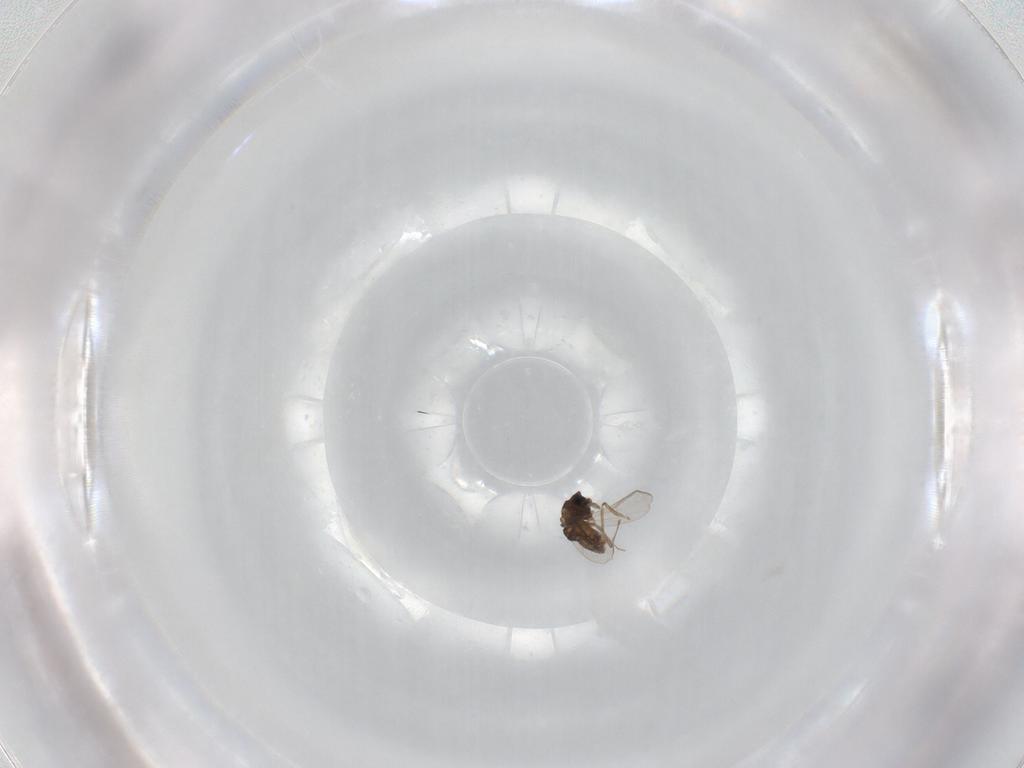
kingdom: Animalia
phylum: Arthropoda
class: Insecta
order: Diptera
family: Chironomidae
